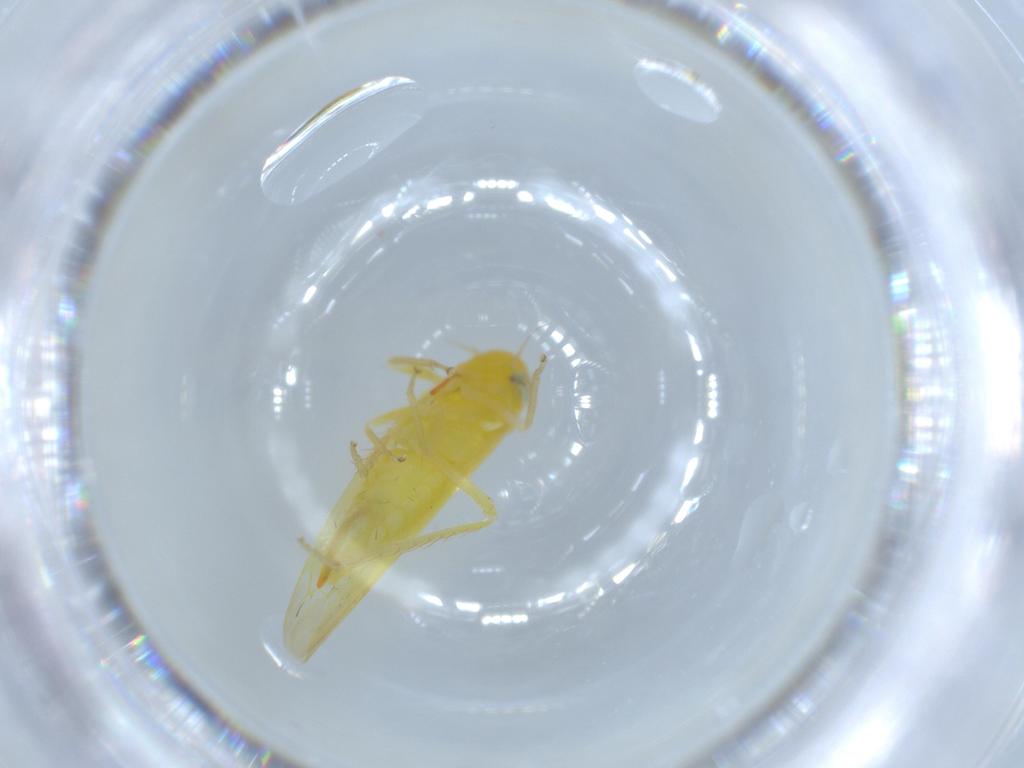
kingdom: Animalia
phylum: Arthropoda
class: Insecta
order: Hemiptera
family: Cicadellidae
